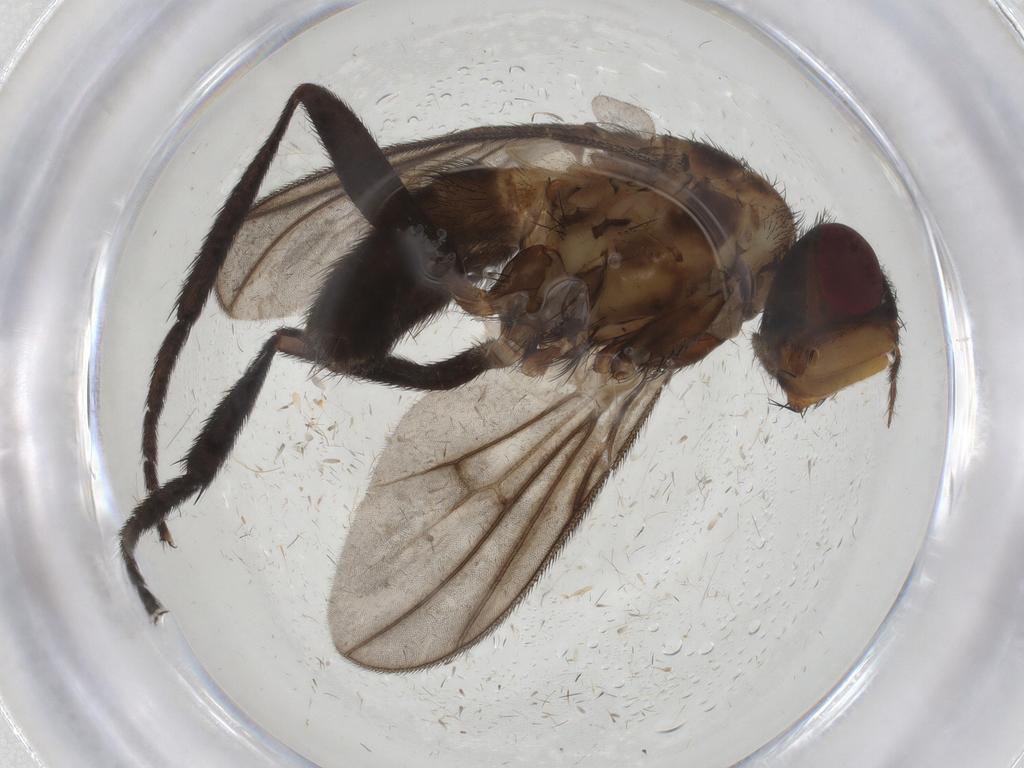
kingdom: Animalia
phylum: Arthropoda
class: Insecta
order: Diptera
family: Calliphoridae
